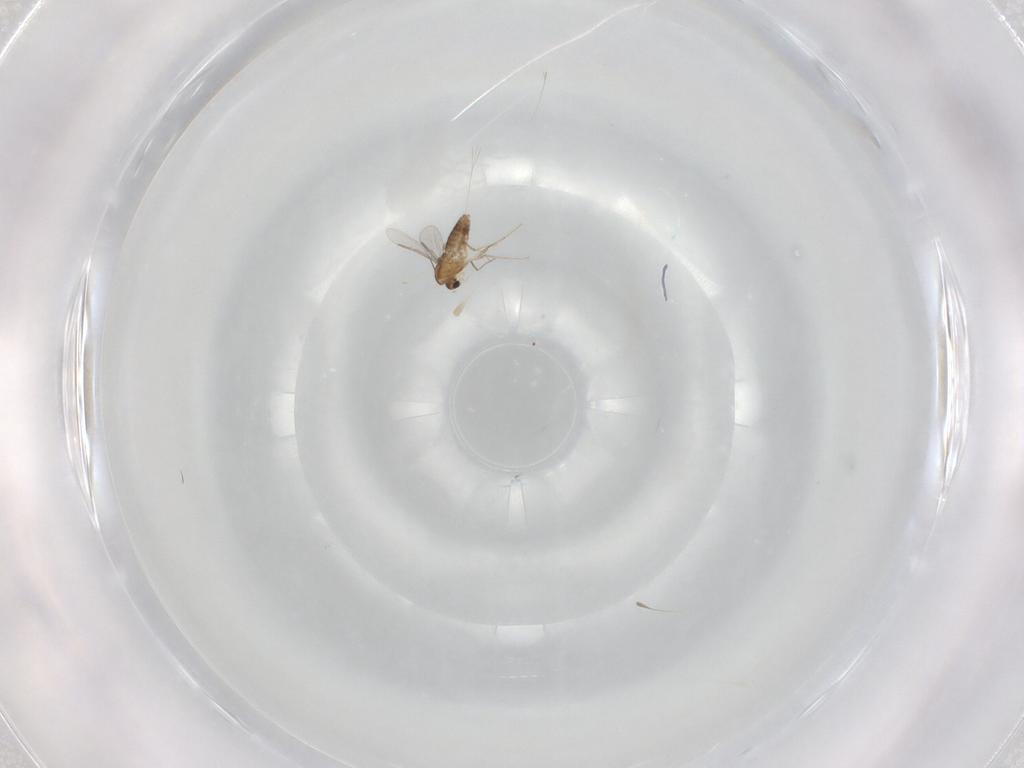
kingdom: Animalia
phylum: Arthropoda
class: Insecta
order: Diptera
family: Chironomidae
